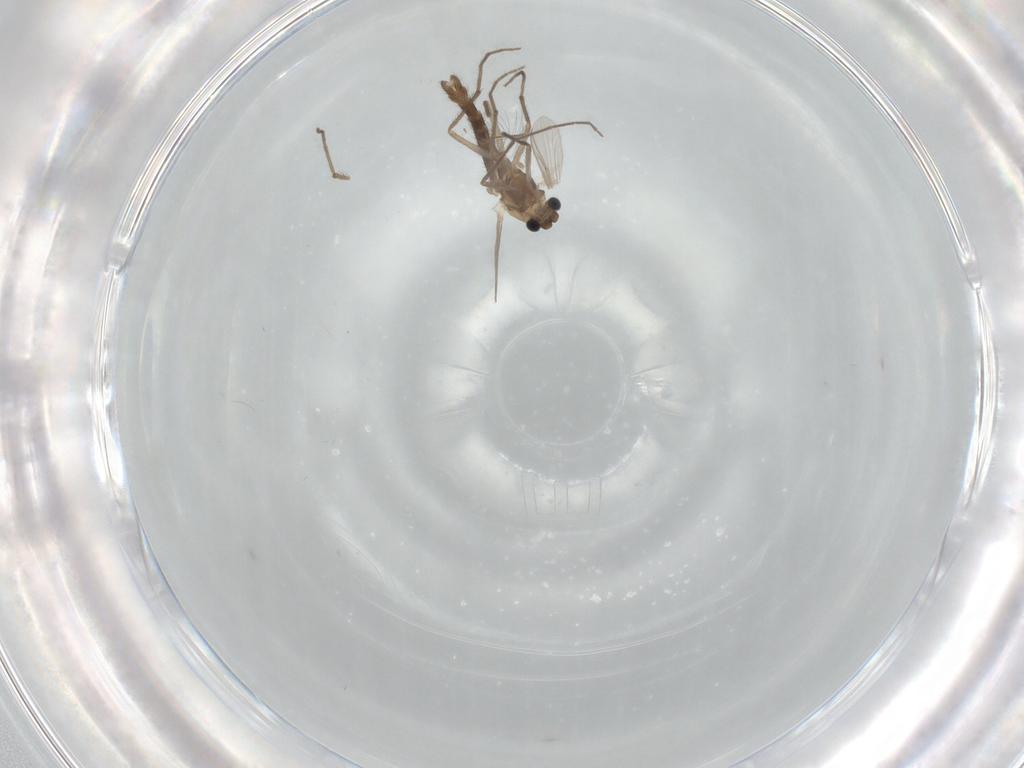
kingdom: Animalia
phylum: Arthropoda
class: Insecta
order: Diptera
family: Chironomidae
